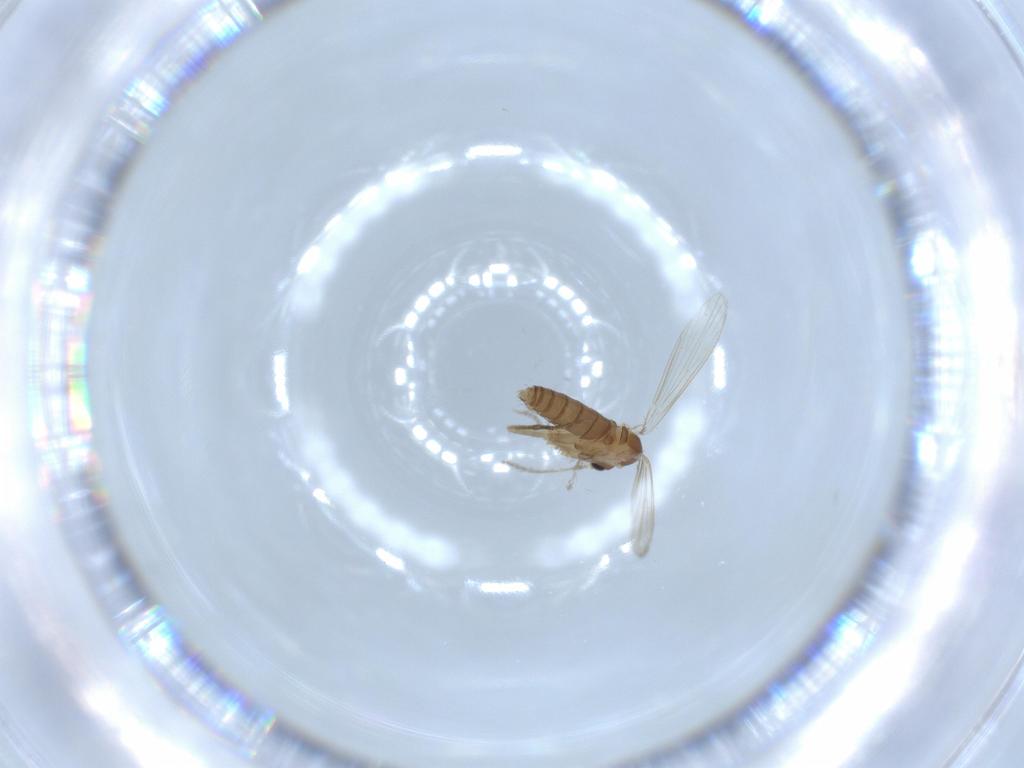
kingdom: Animalia
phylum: Arthropoda
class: Insecta
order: Diptera
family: Psychodidae
